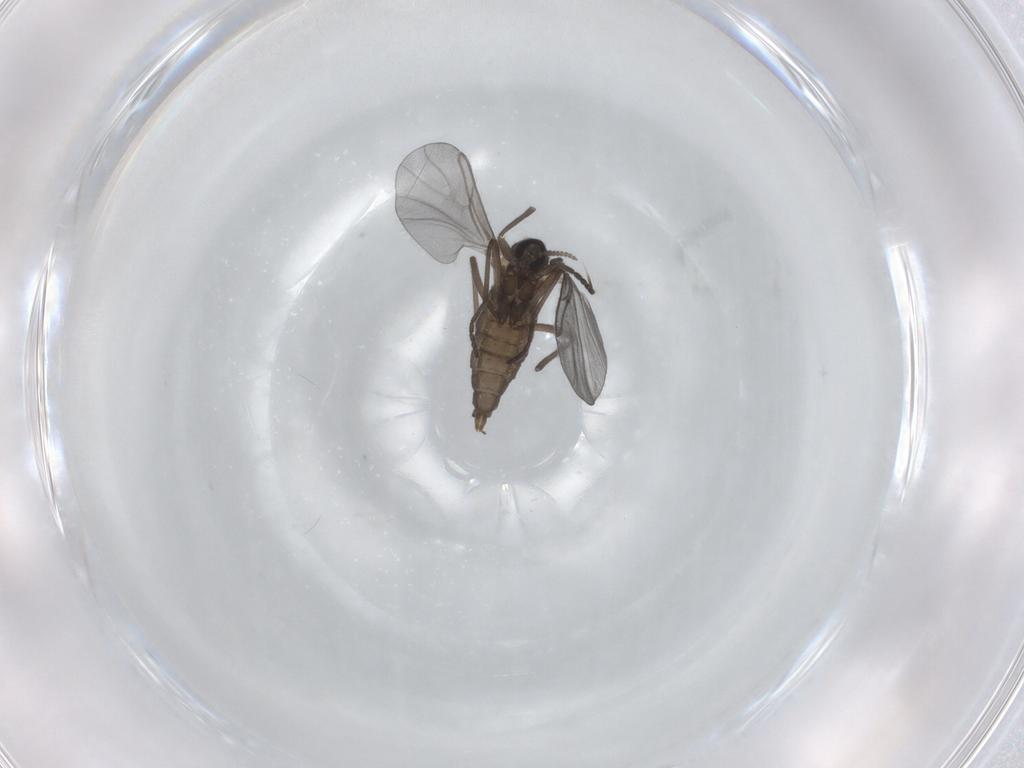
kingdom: Animalia
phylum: Arthropoda
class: Insecta
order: Diptera
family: Cecidomyiidae
